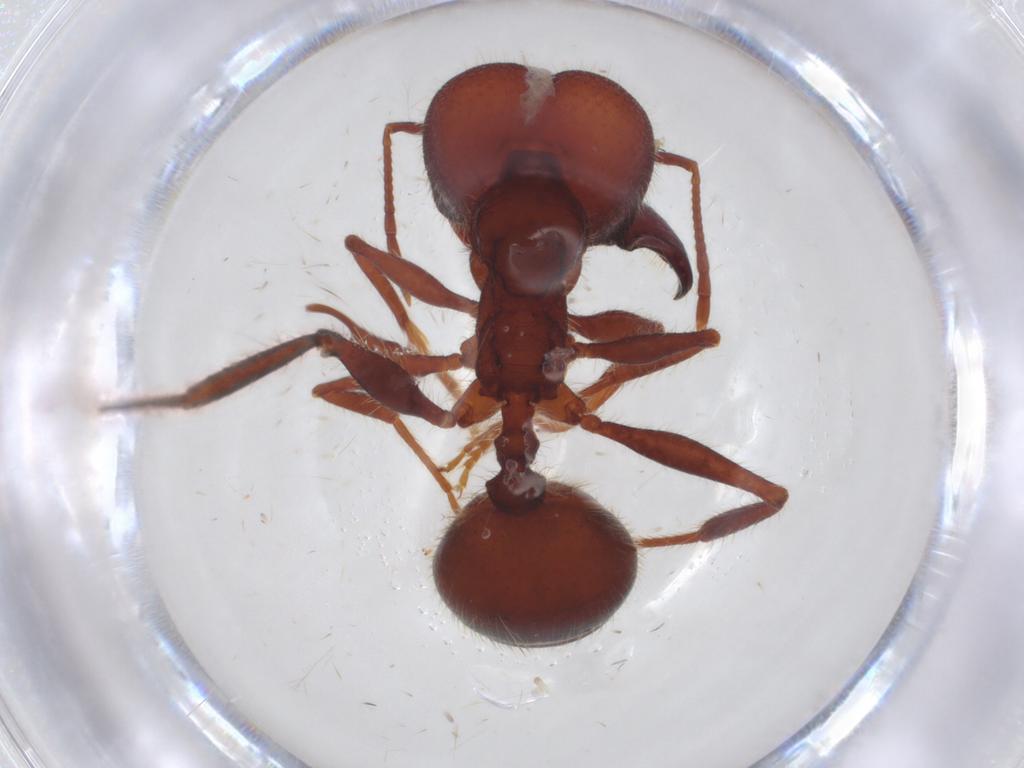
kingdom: Animalia
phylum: Arthropoda
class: Insecta
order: Hymenoptera
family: Formicidae
